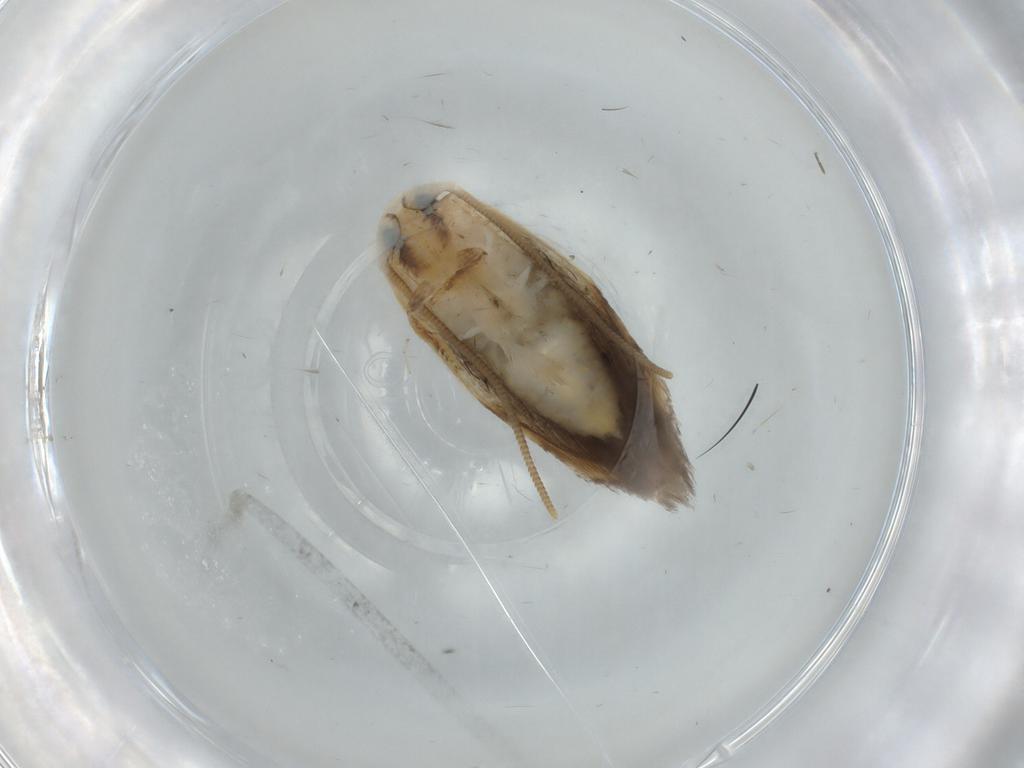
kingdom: Animalia
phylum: Arthropoda
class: Insecta
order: Lepidoptera
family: Opostegidae
